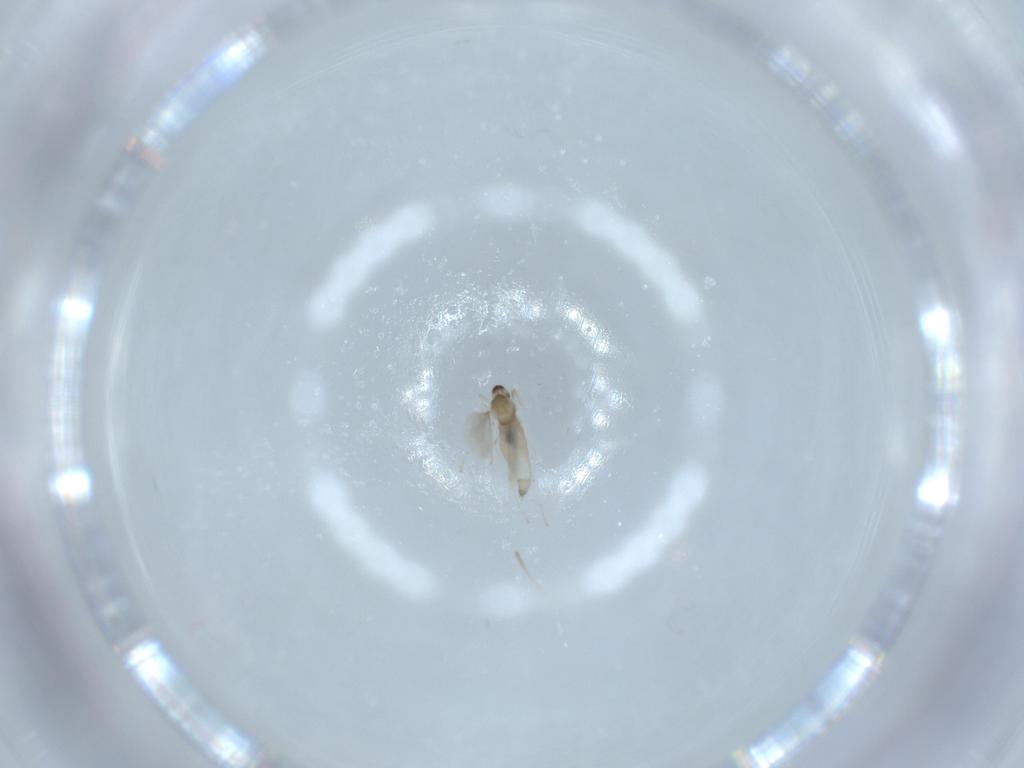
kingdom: Animalia
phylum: Arthropoda
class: Insecta
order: Diptera
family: Cecidomyiidae
